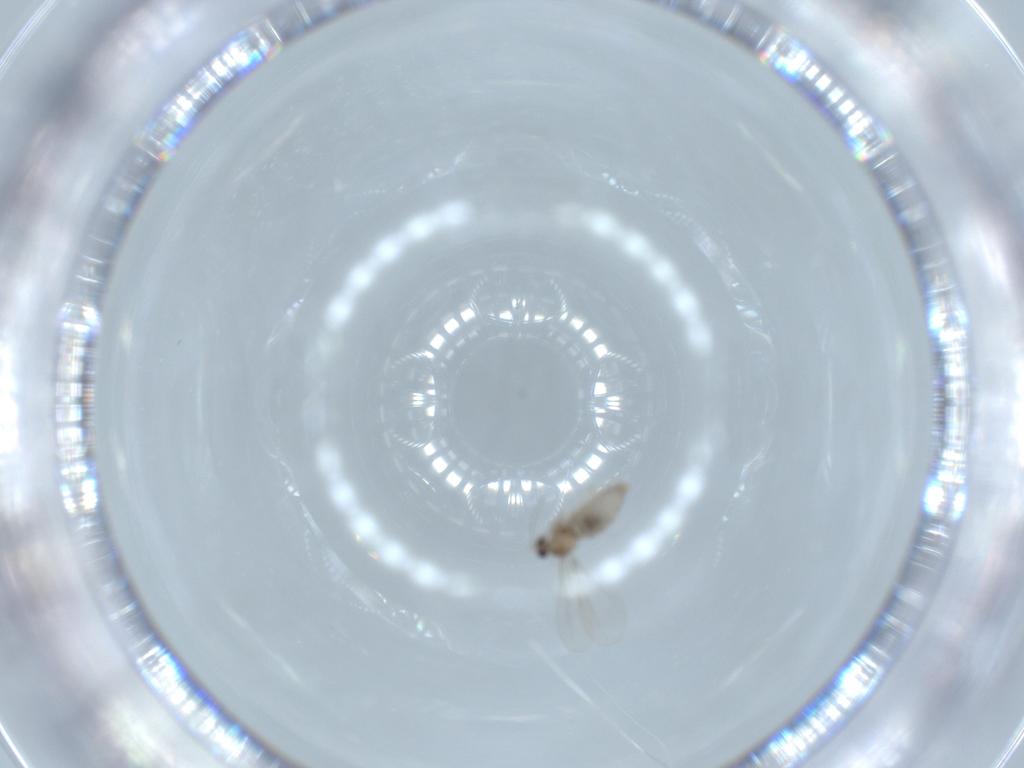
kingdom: Animalia
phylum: Arthropoda
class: Insecta
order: Diptera
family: Cecidomyiidae
